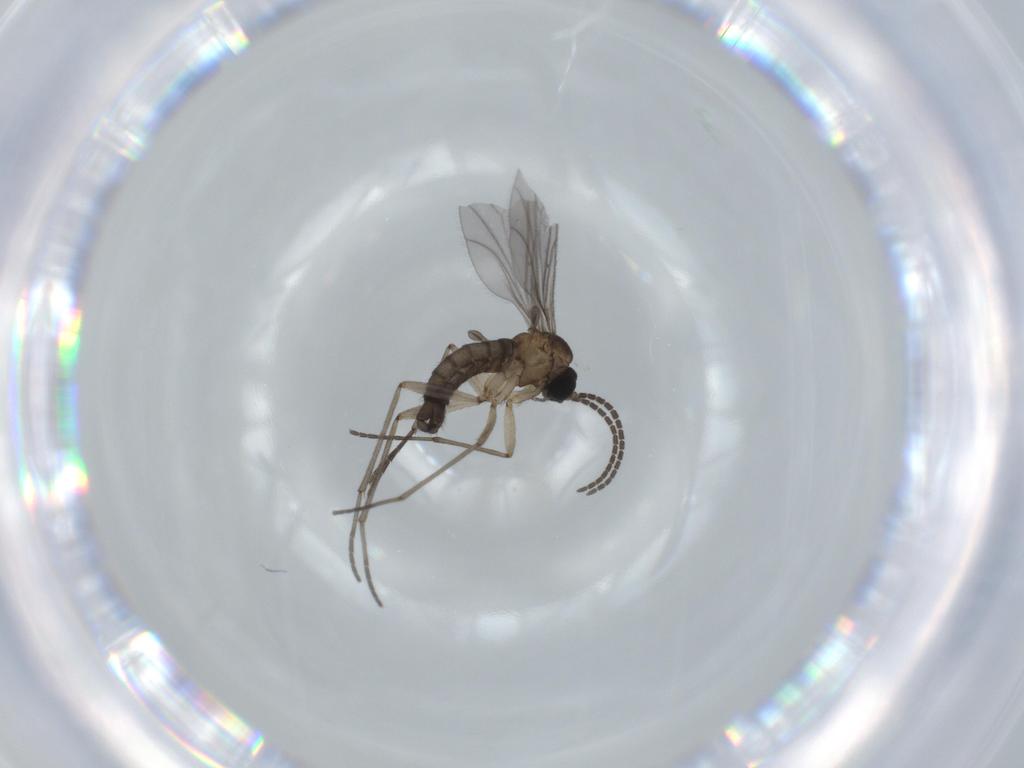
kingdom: Animalia
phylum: Arthropoda
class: Insecta
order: Diptera
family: Sciaridae
